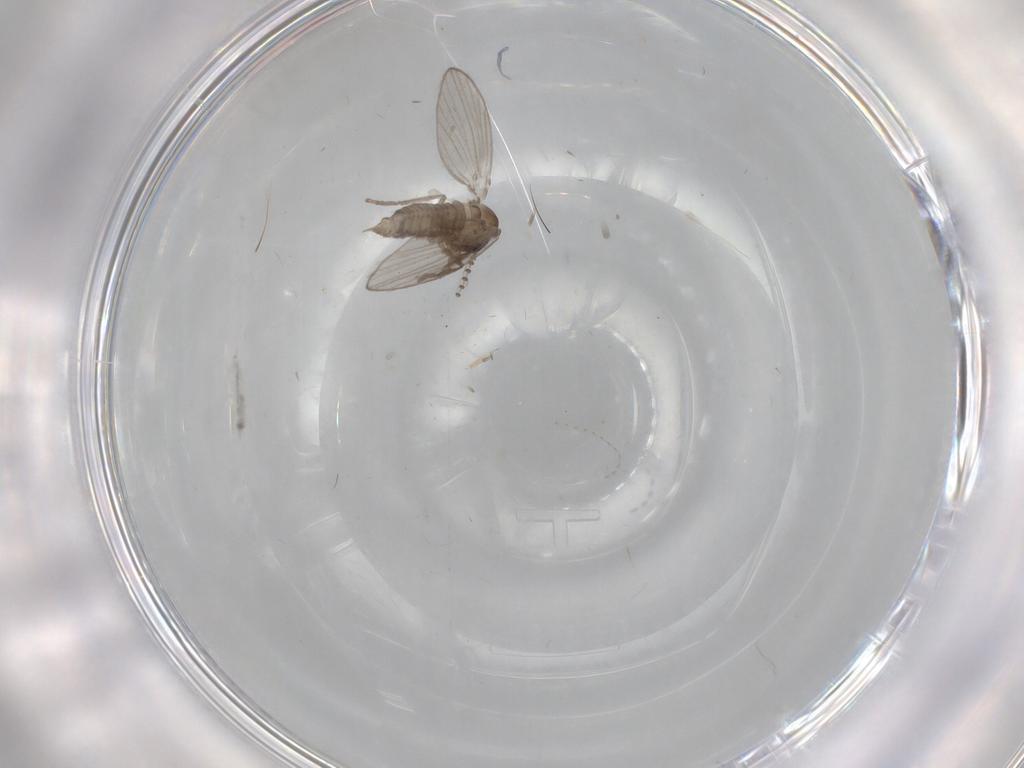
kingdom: Animalia
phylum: Arthropoda
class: Insecta
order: Diptera
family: Psychodidae
